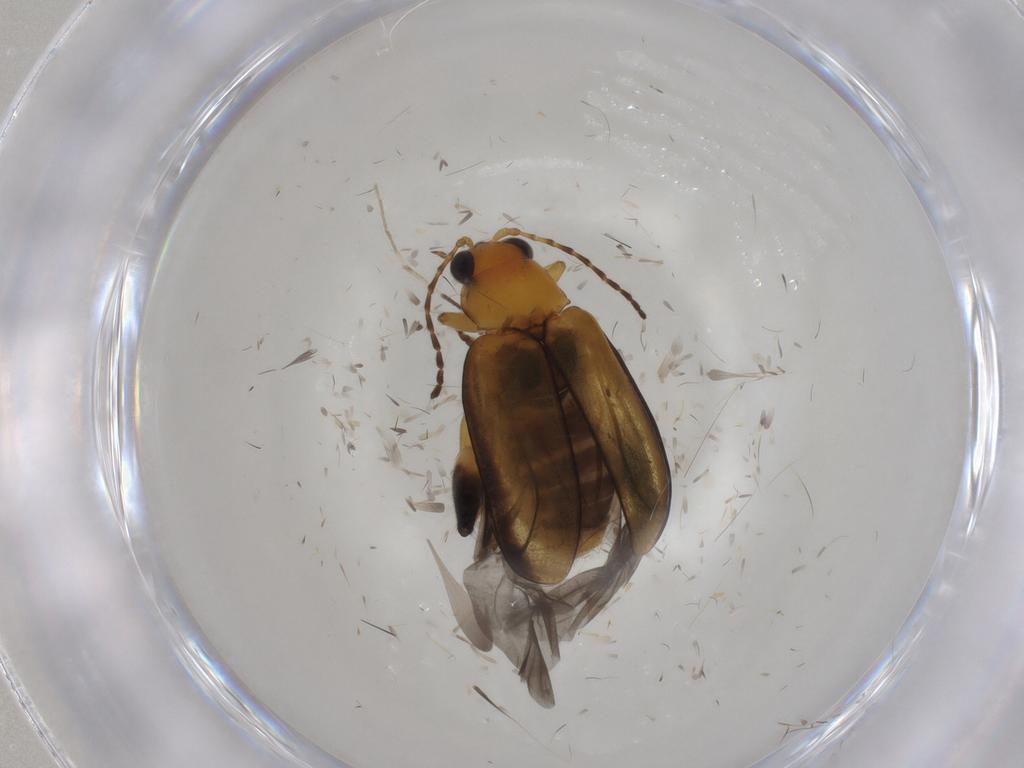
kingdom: Animalia
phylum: Arthropoda
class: Insecta
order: Coleoptera
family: Chrysomelidae
